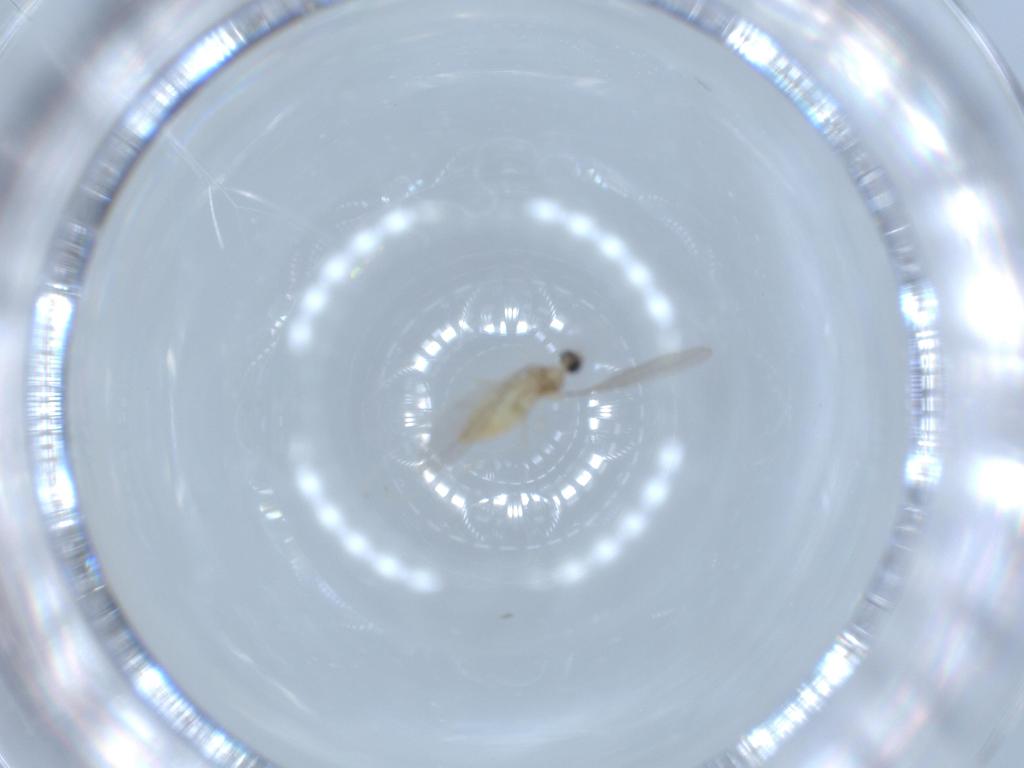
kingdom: Animalia
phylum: Arthropoda
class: Insecta
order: Diptera
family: Cecidomyiidae
